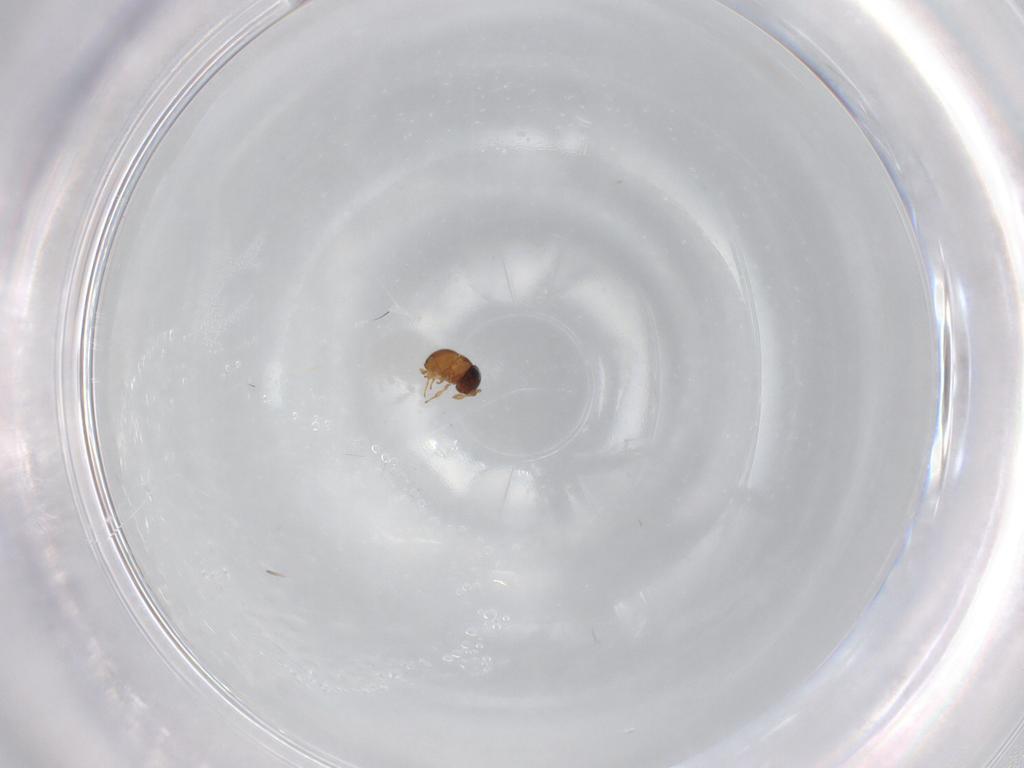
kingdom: Animalia
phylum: Arthropoda
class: Insecta
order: Hymenoptera
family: Scelionidae
